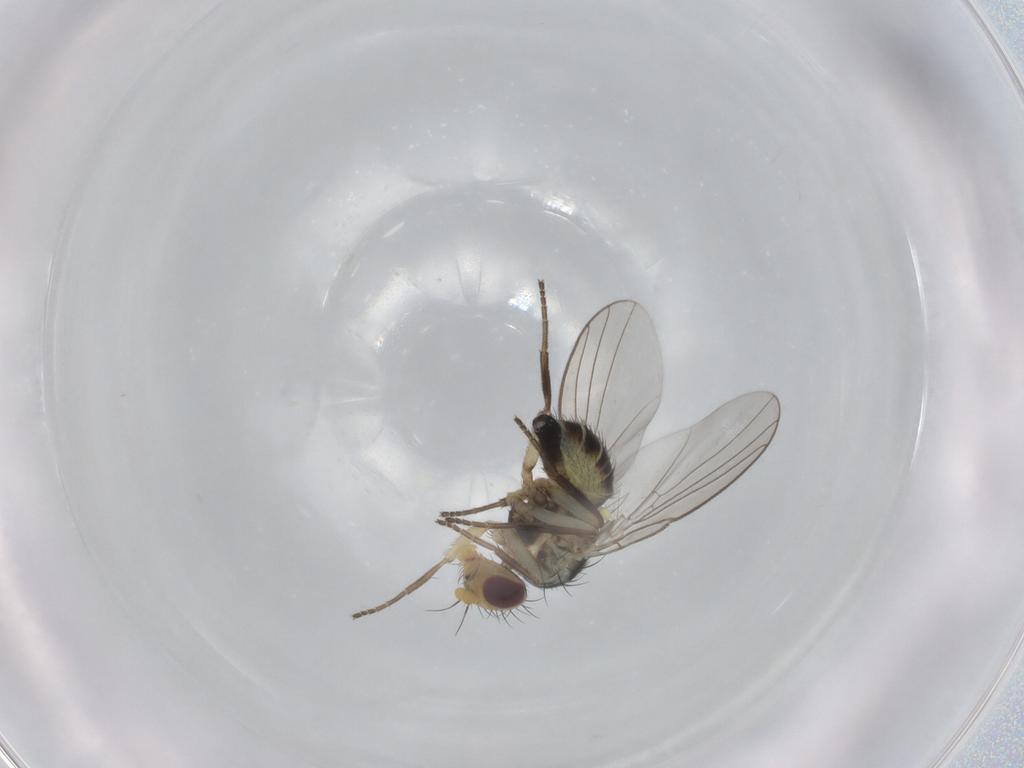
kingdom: Animalia
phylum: Arthropoda
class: Insecta
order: Diptera
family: Agromyzidae
